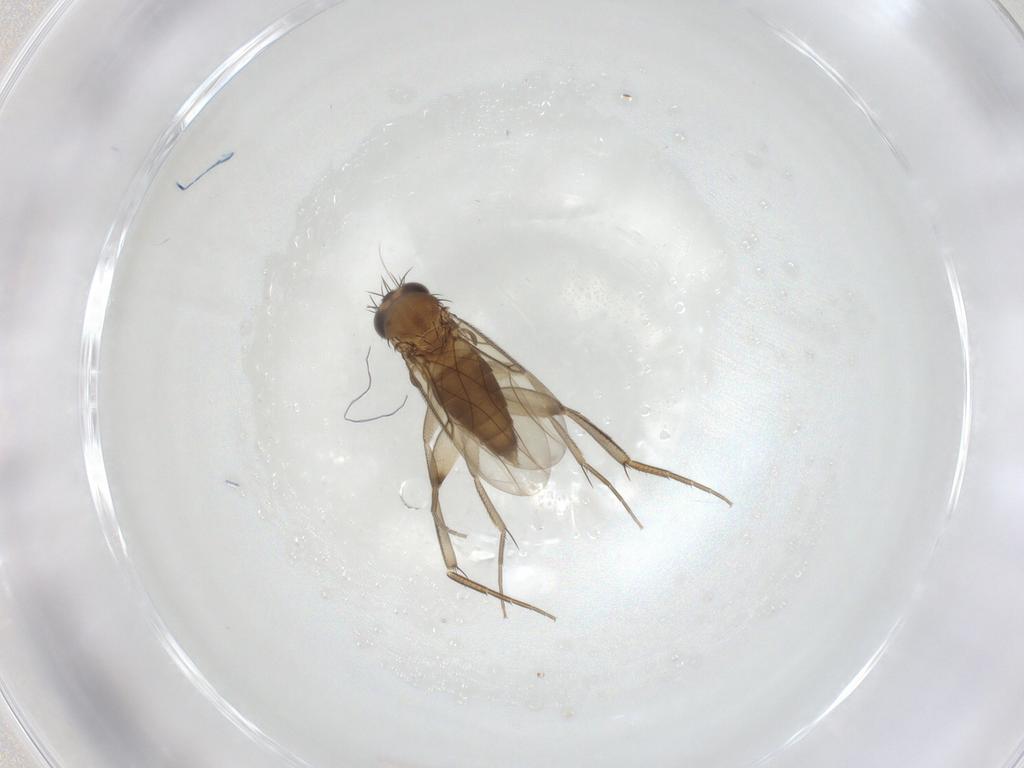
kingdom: Animalia
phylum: Arthropoda
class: Insecta
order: Diptera
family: Phoridae
